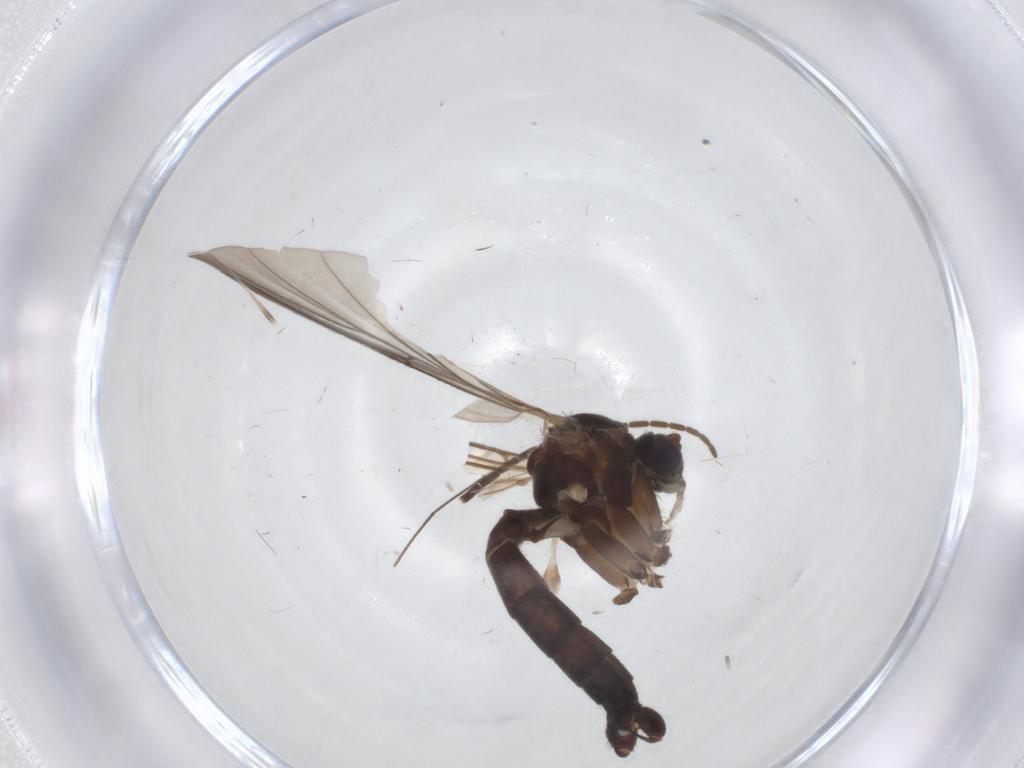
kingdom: Animalia
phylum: Arthropoda
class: Insecta
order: Diptera
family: Mycetophilidae
